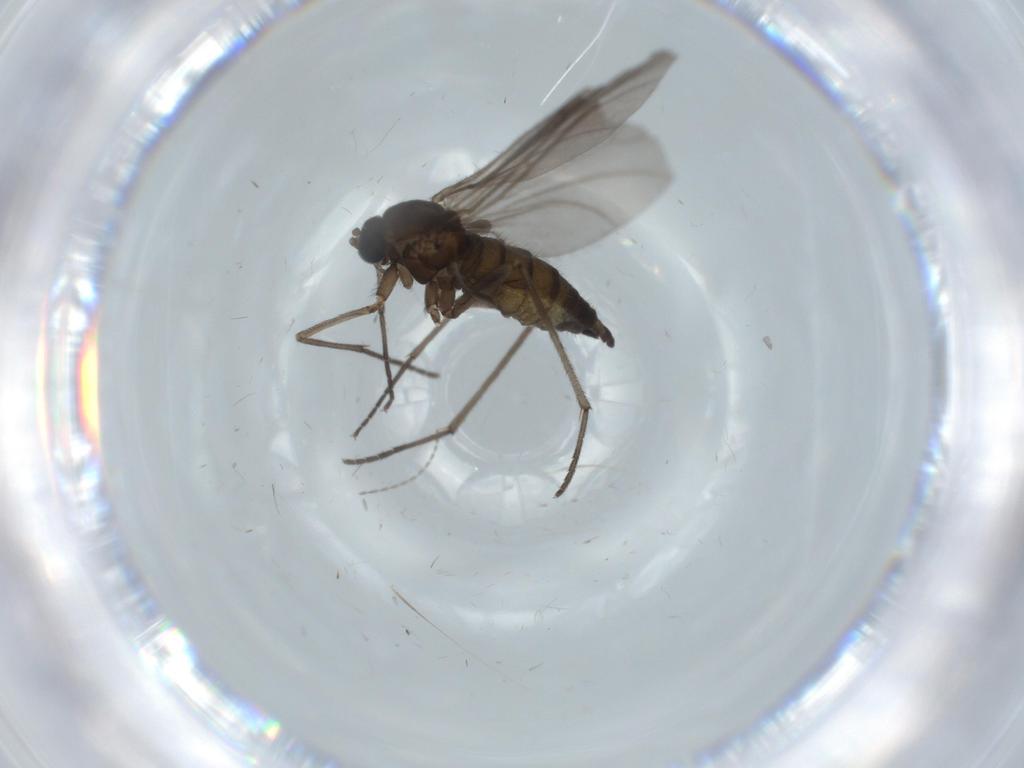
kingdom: Animalia
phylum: Arthropoda
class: Insecta
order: Diptera
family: Sciaridae
